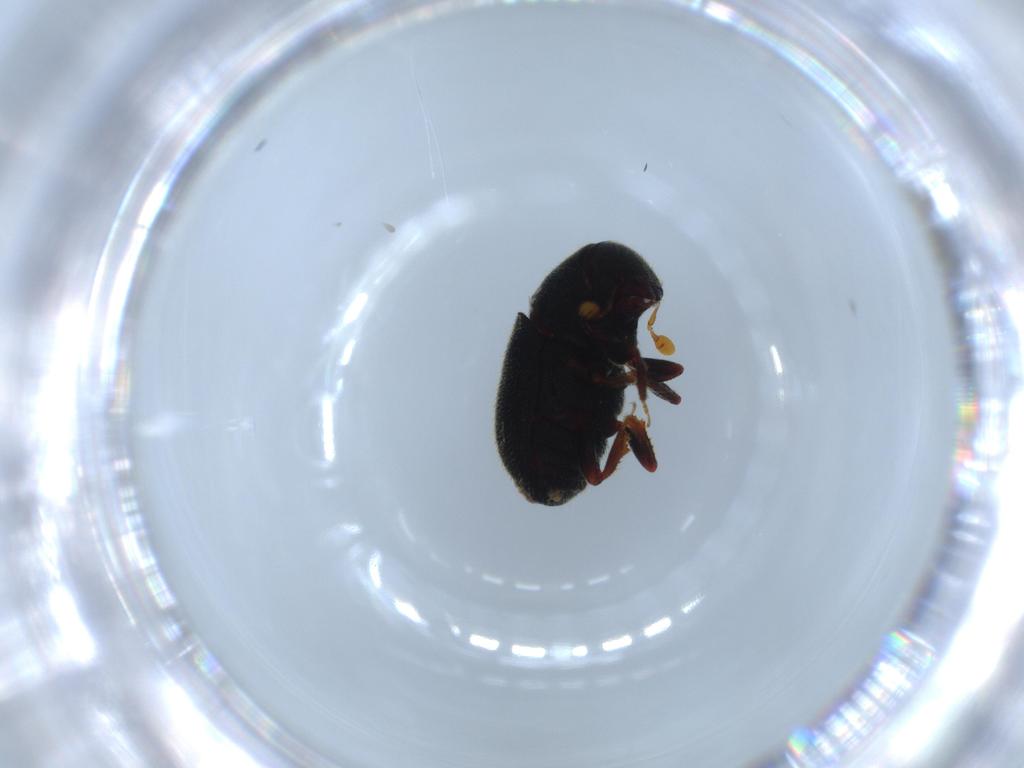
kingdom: Animalia
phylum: Arthropoda
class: Insecta
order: Coleoptera
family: Curculionidae
